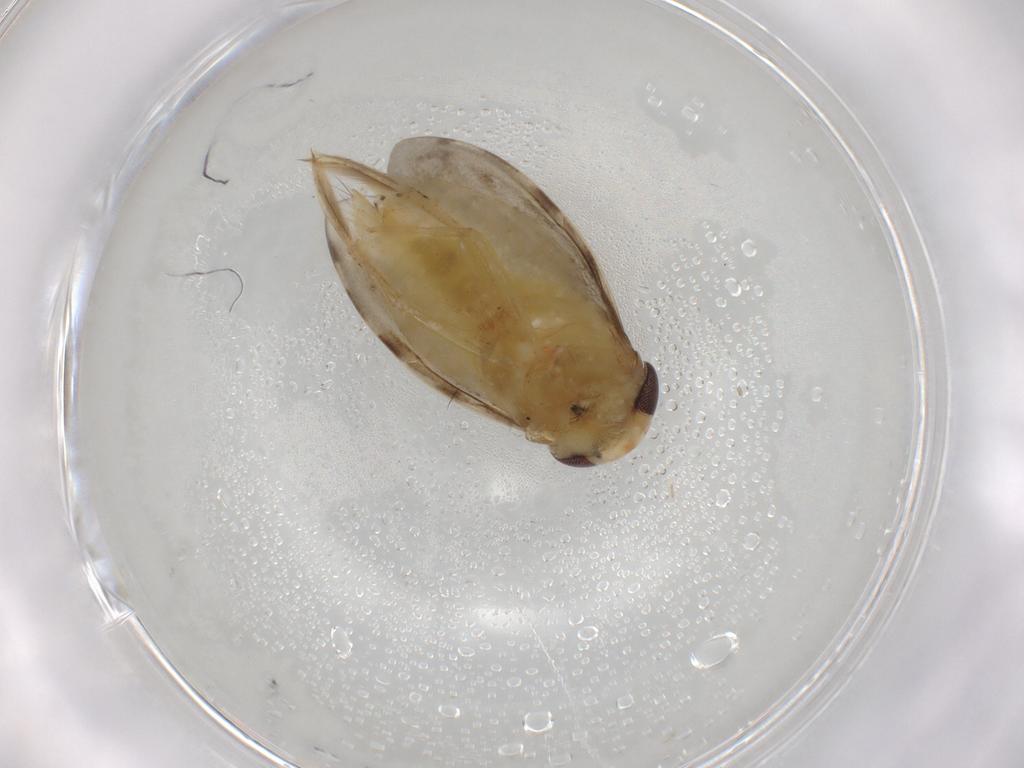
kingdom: Animalia
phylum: Arthropoda
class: Insecta
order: Hemiptera
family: Corixidae
